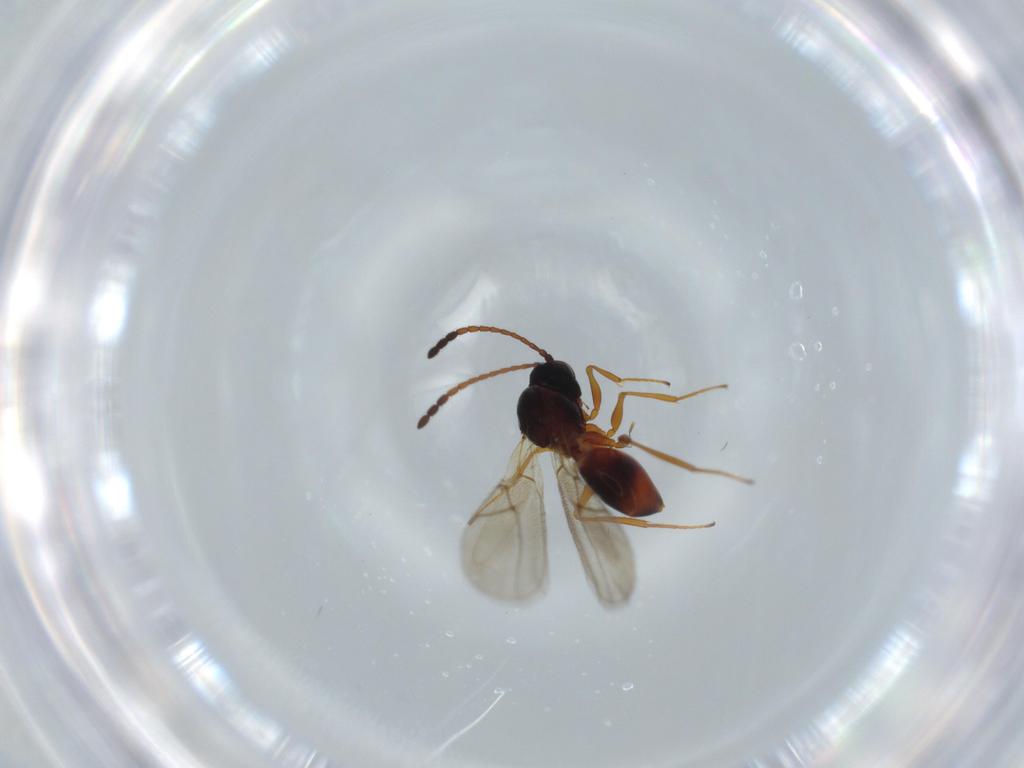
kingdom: Animalia
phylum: Arthropoda
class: Insecta
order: Hymenoptera
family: Figitidae
